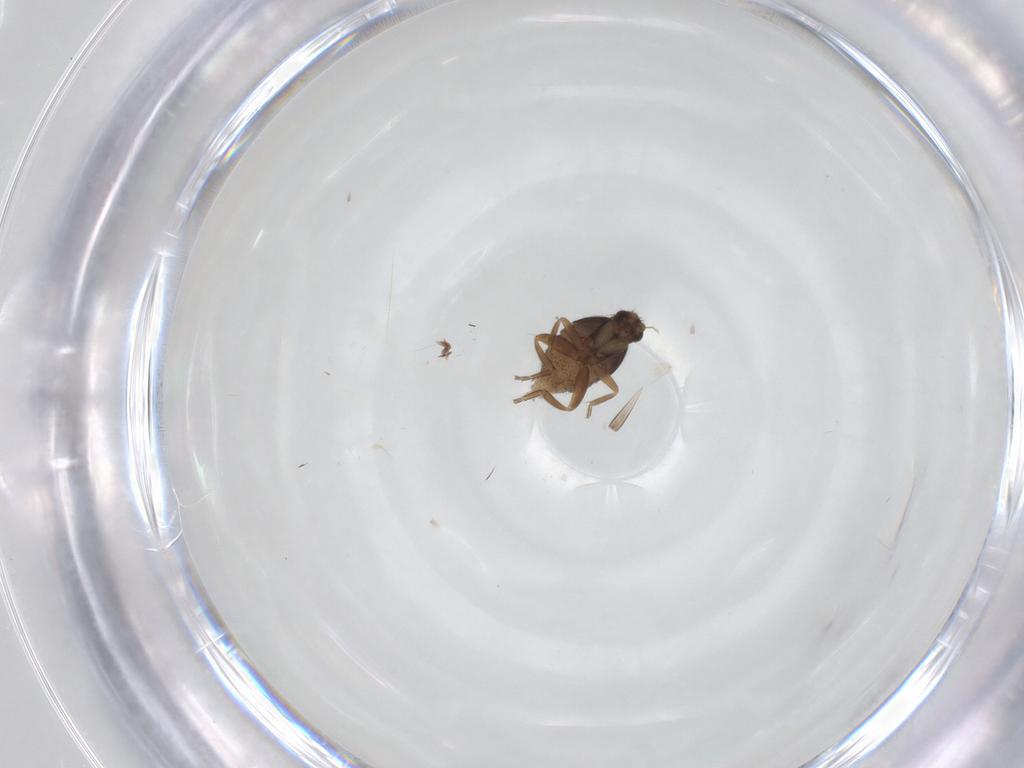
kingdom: Animalia
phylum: Arthropoda
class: Insecta
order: Diptera
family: Phoridae
